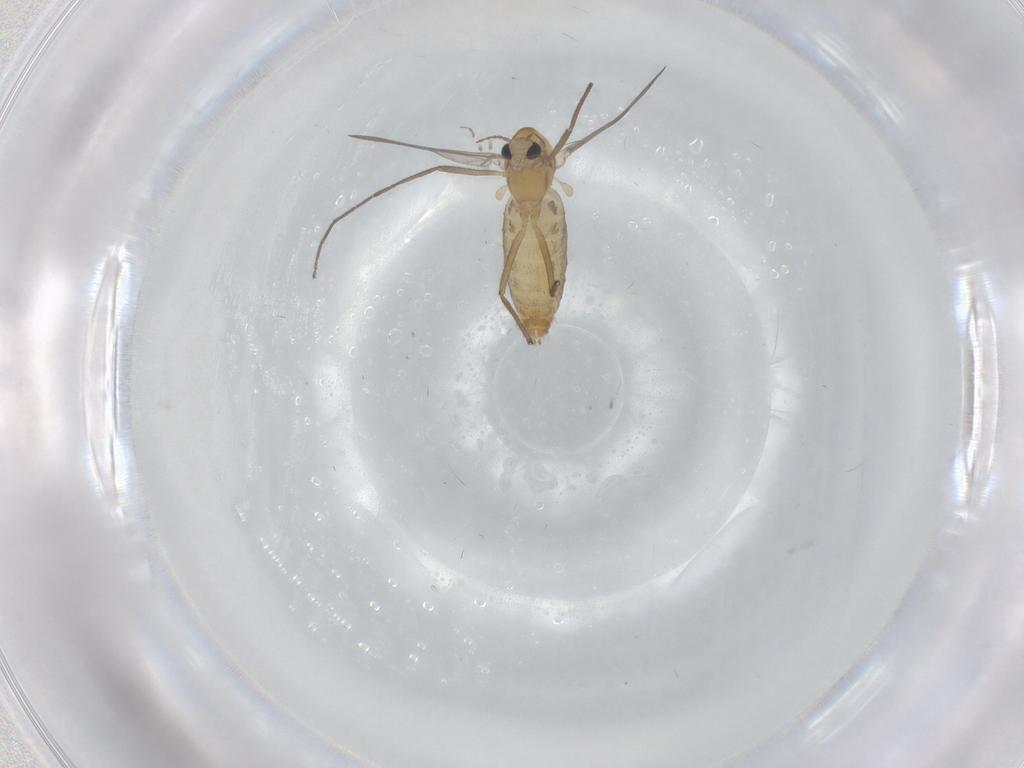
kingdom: Animalia
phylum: Arthropoda
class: Insecta
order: Diptera
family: Chironomidae
